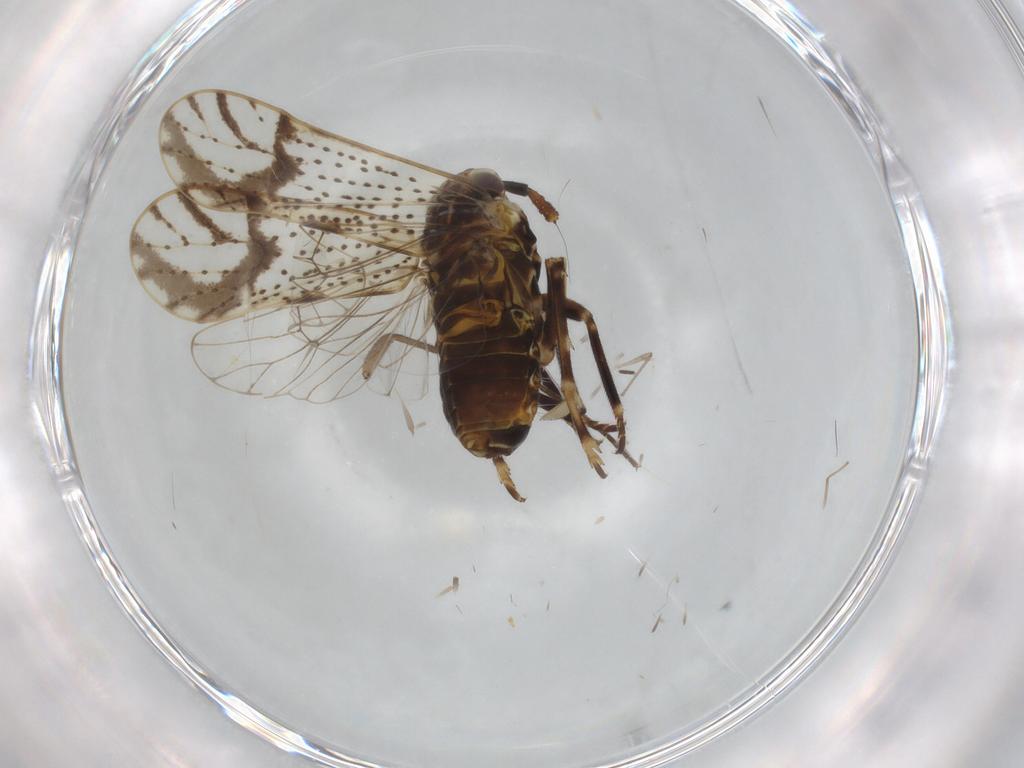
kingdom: Animalia
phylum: Arthropoda
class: Insecta
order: Hemiptera
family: Delphacidae
